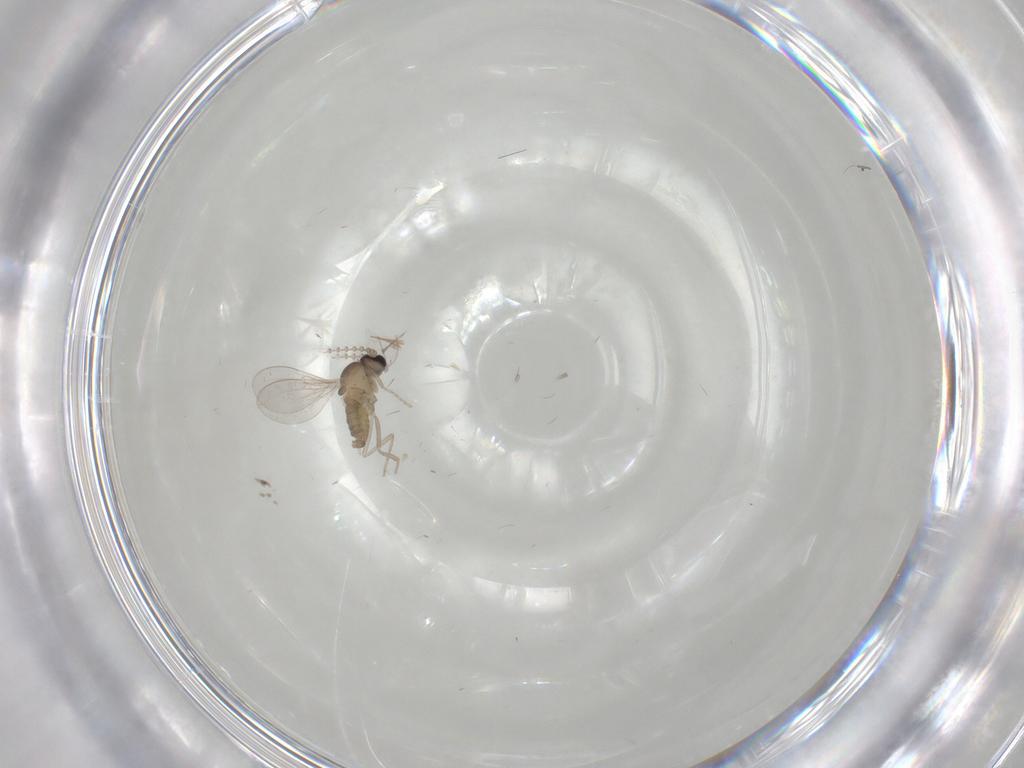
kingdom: Animalia
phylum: Arthropoda
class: Insecta
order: Diptera
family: Cecidomyiidae
